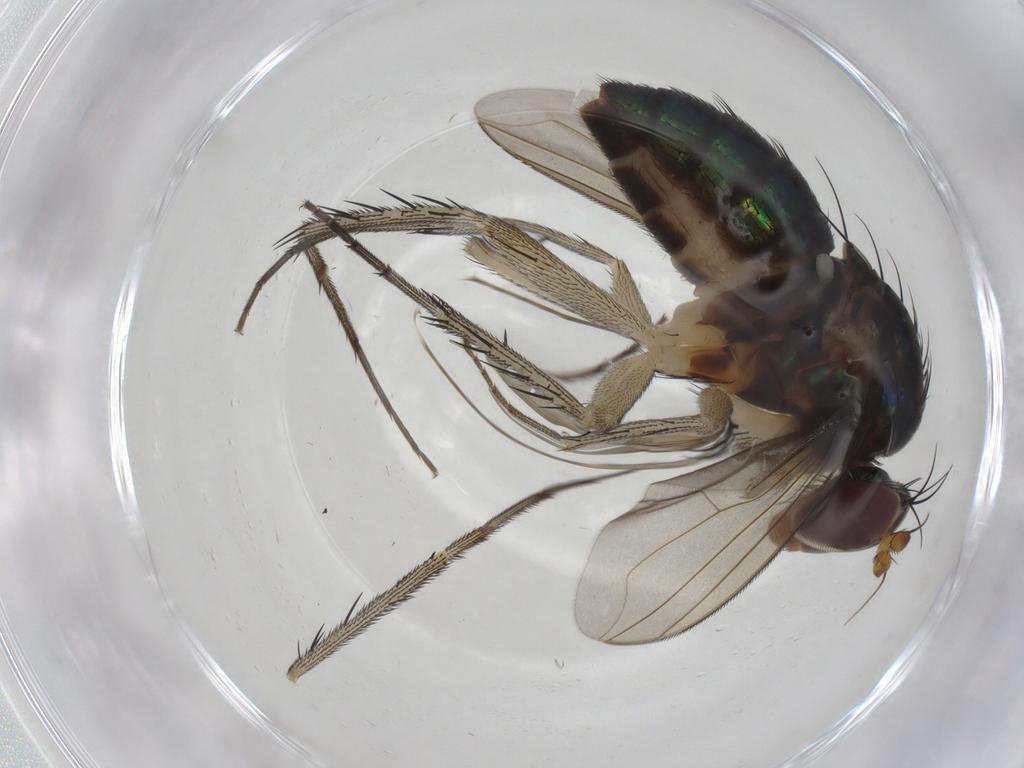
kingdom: Animalia
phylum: Arthropoda
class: Insecta
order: Diptera
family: Dolichopodidae
